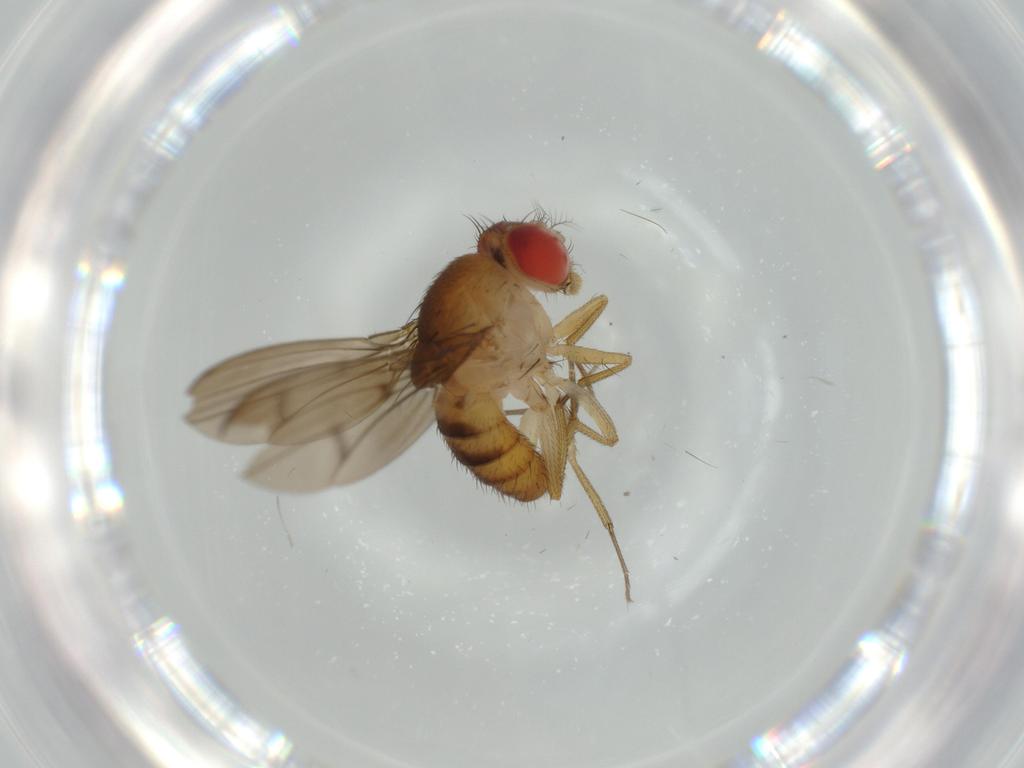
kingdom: Animalia
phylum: Arthropoda
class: Insecta
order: Diptera
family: Drosophilidae
